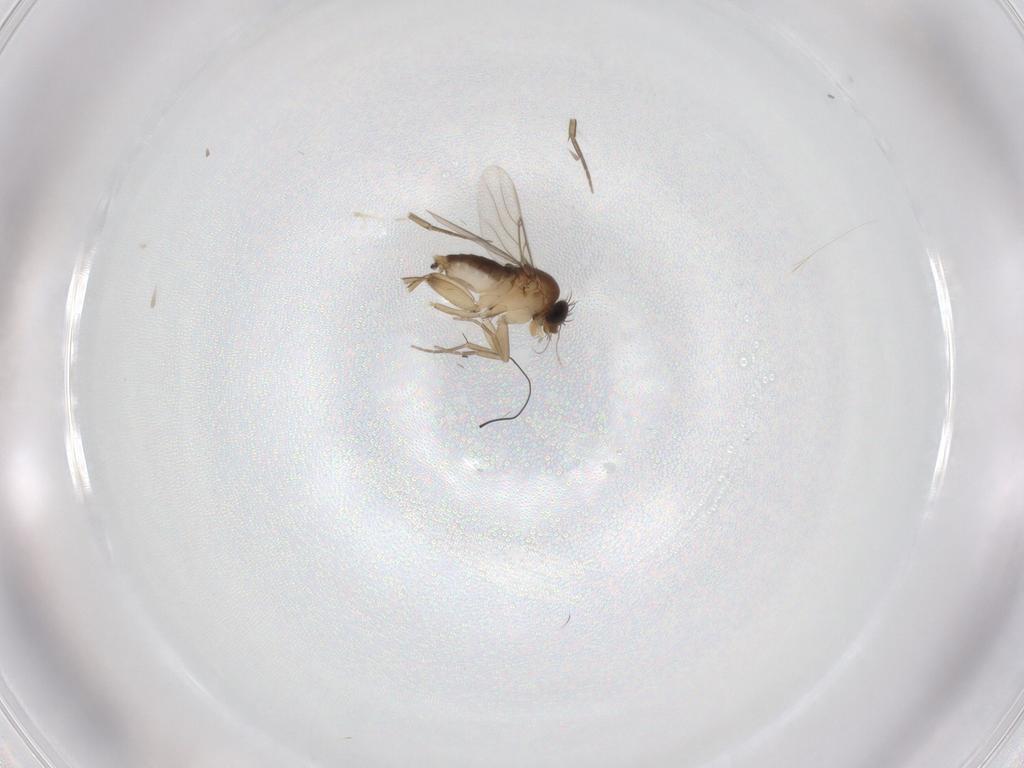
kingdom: Animalia
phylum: Arthropoda
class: Insecta
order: Diptera
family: Phoridae
